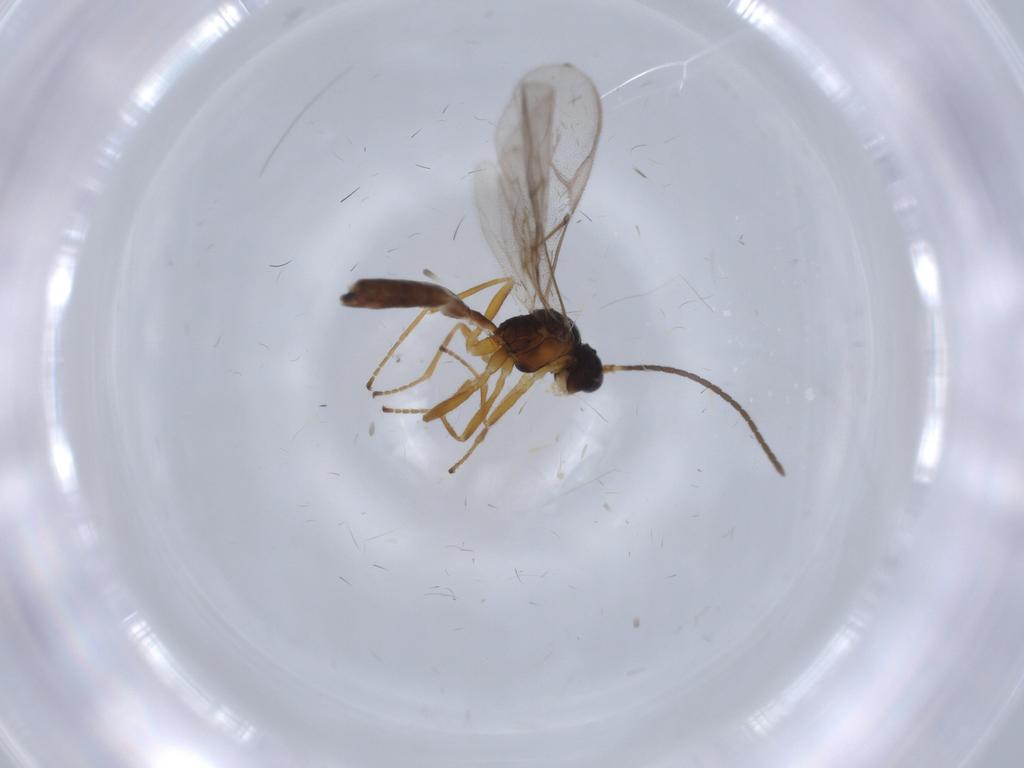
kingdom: Animalia
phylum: Arthropoda
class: Insecta
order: Hymenoptera
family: Braconidae
